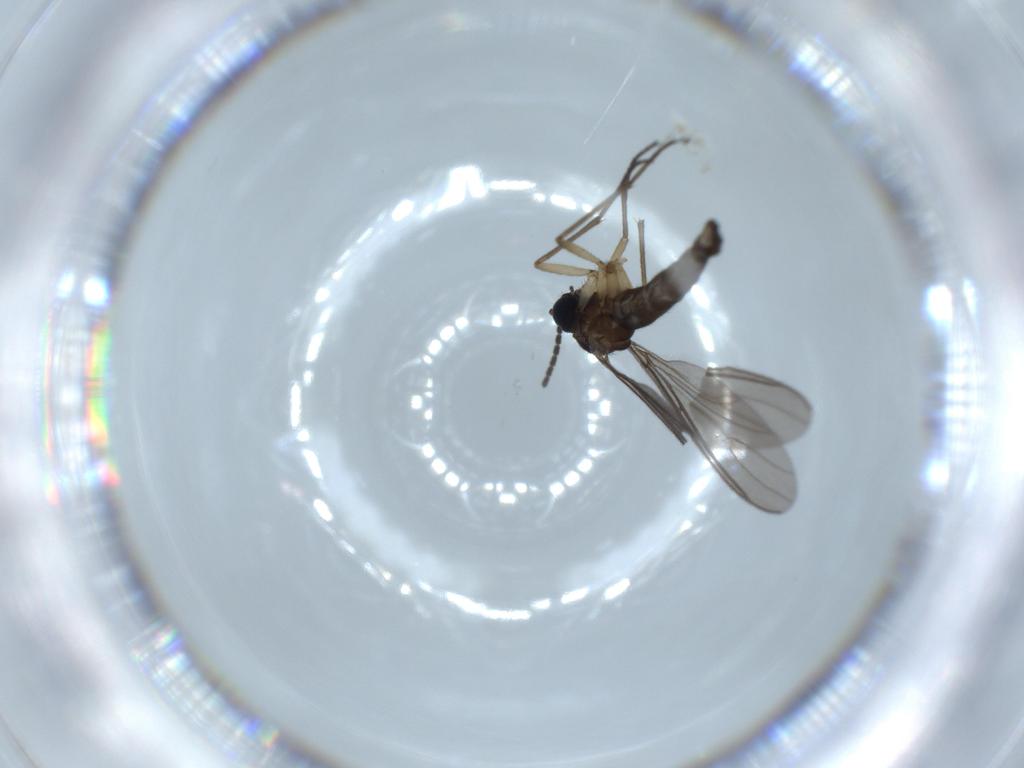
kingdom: Animalia
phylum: Arthropoda
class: Insecta
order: Diptera
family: Sciaridae
